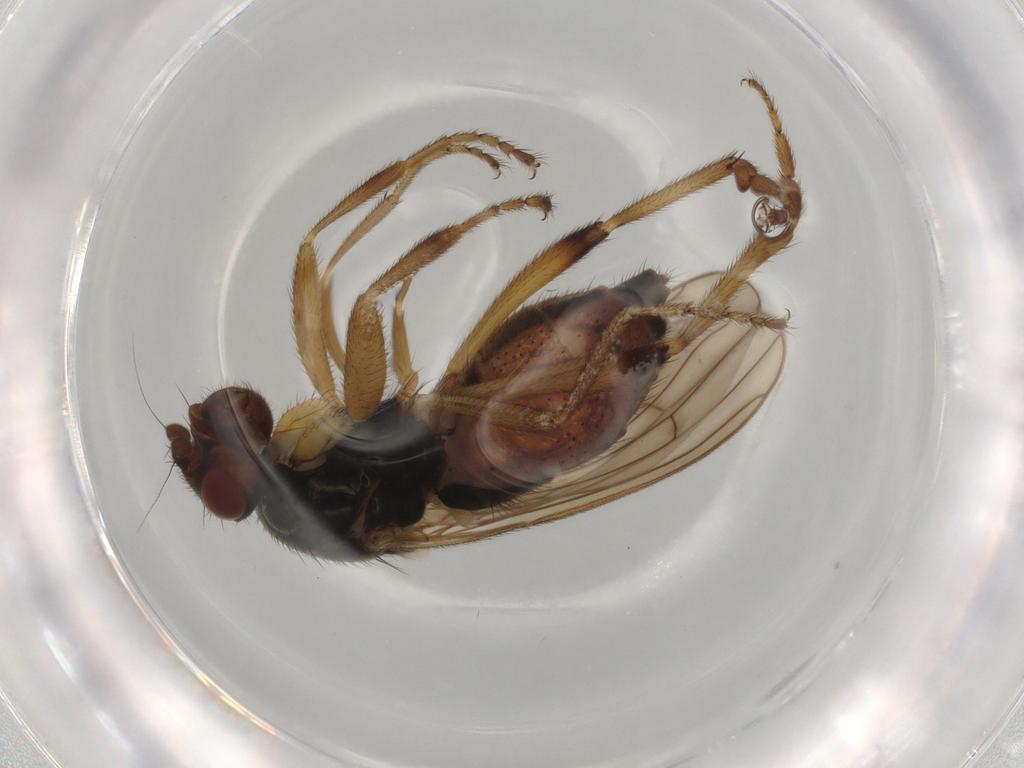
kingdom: Animalia
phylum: Arthropoda
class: Insecta
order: Diptera
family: Sphaeroceridae
